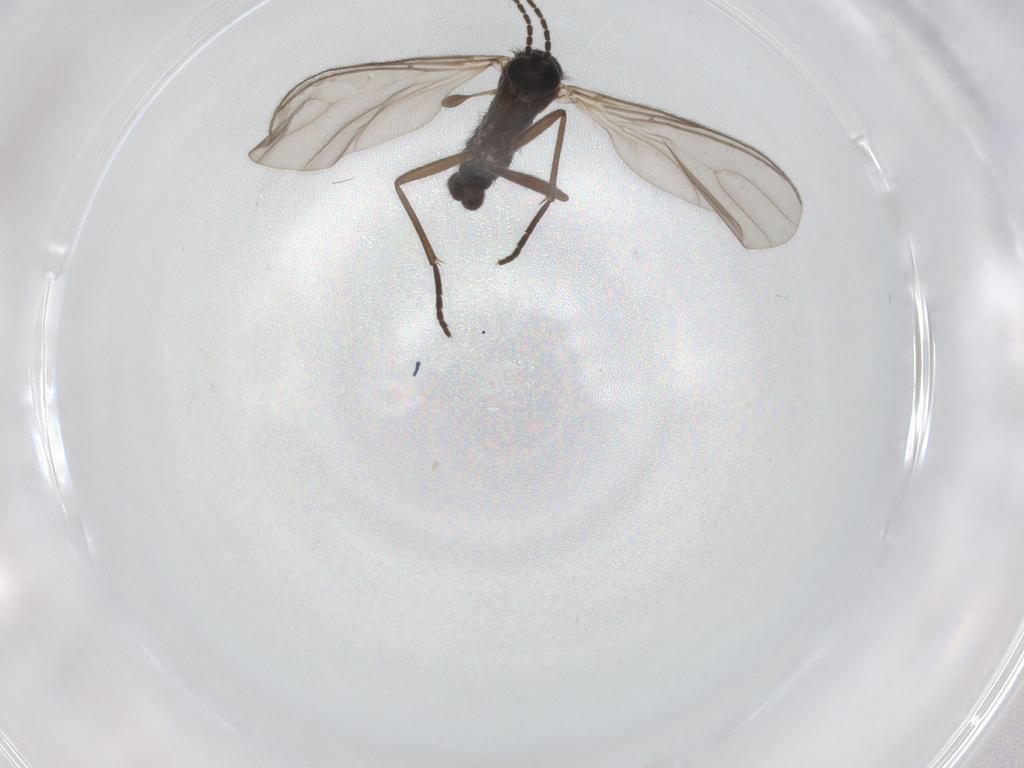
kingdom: Animalia
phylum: Arthropoda
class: Insecta
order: Diptera
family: Sciaridae
